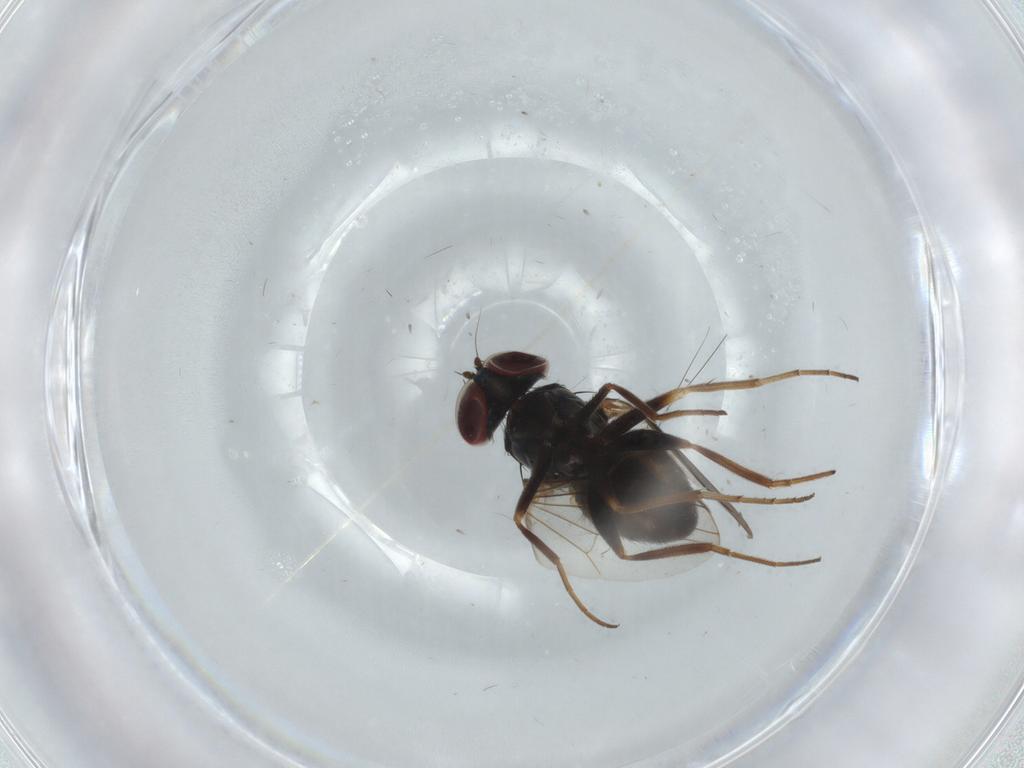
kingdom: Animalia
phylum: Arthropoda
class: Insecta
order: Diptera
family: Dolichopodidae
